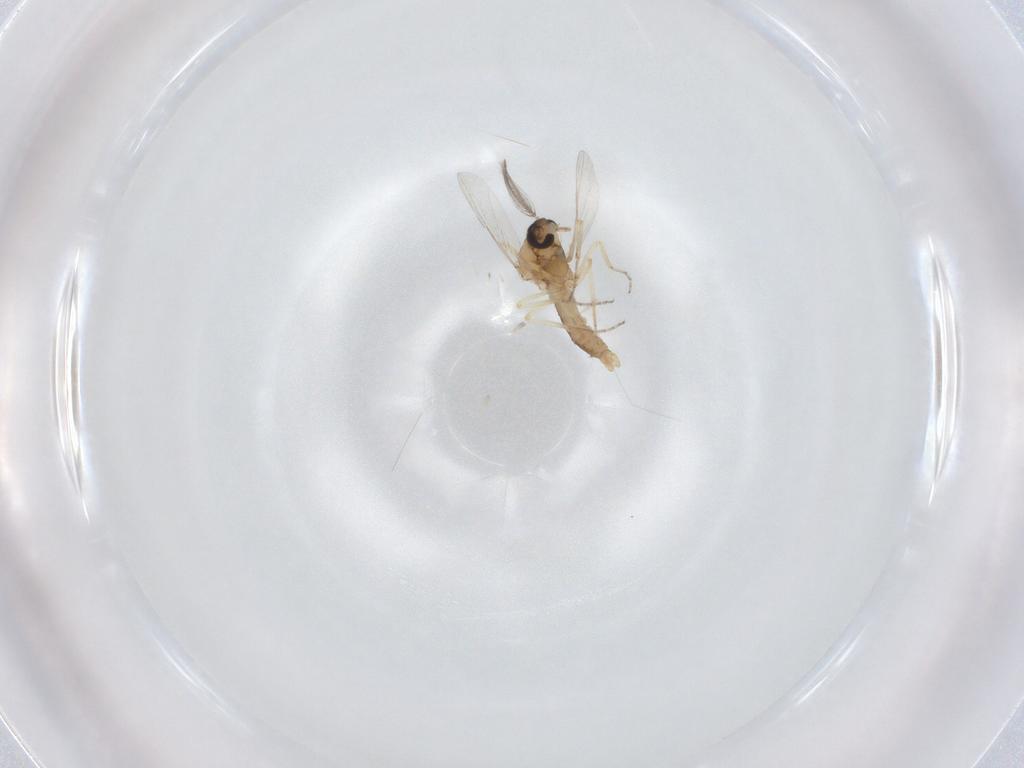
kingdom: Animalia
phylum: Arthropoda
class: Insecta
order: Diptera
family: Ceratopogonidae
